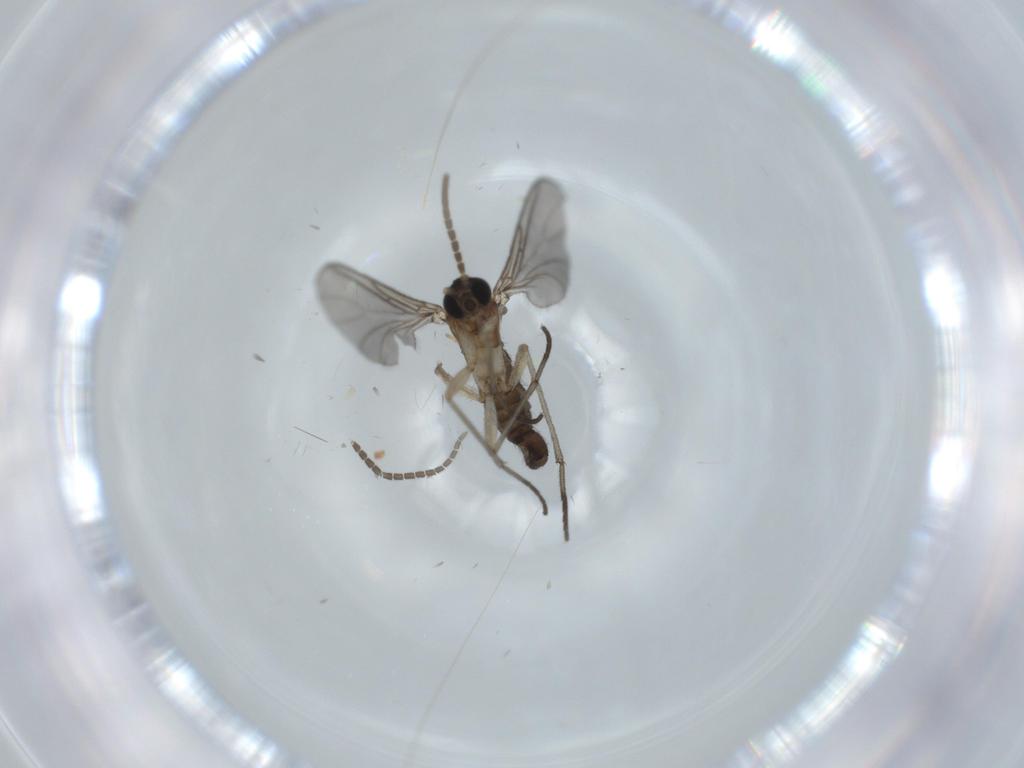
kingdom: Animalia
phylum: Arthropoda
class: Insecta
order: Diptera
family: Sciaridae
